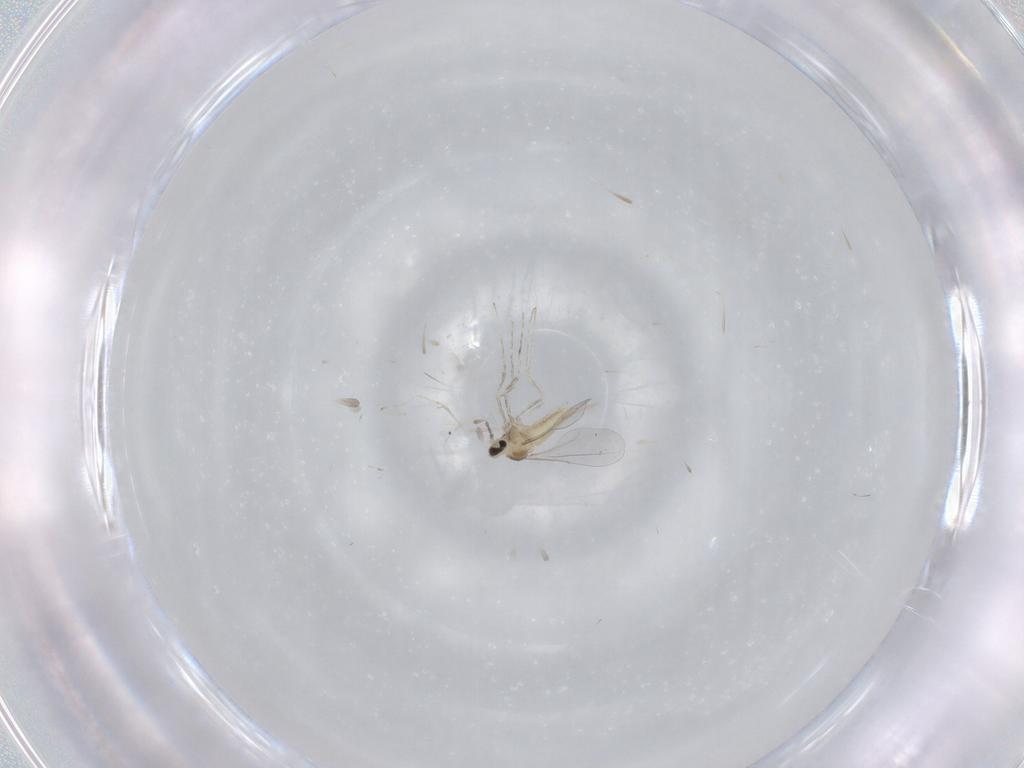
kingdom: Animalia
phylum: Arthropoda
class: Insecta
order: Diptera
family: Cecidomyiidae
